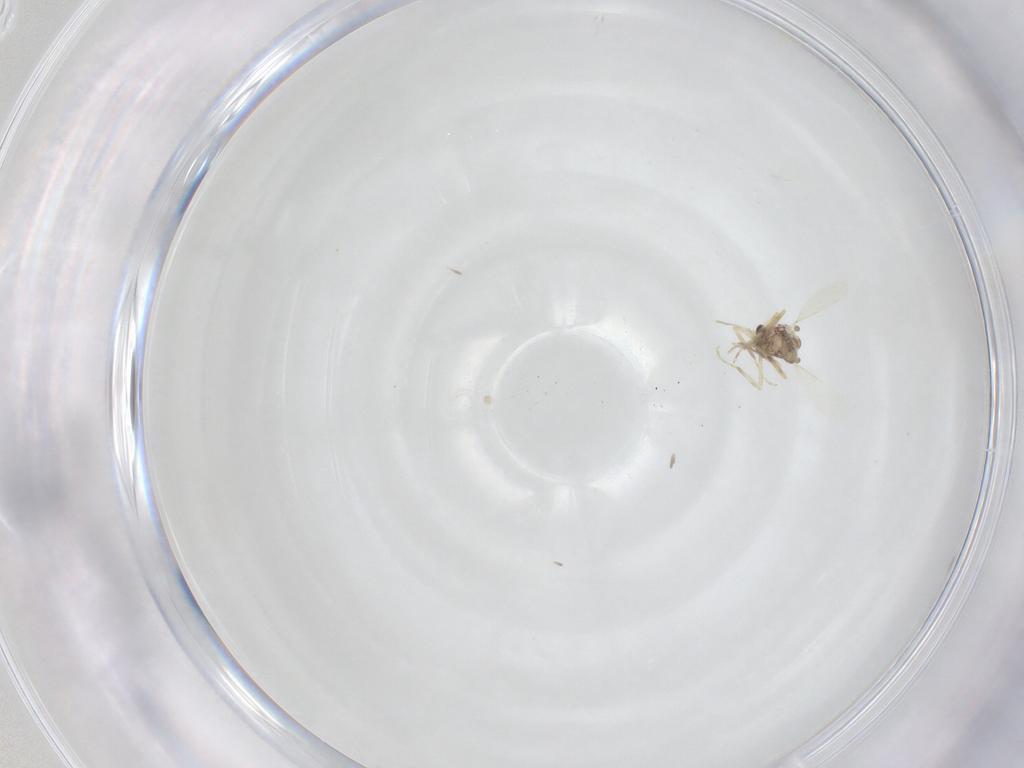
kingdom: Animalia
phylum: Arthropoda
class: Insecta
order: Diptera
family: Ceratopogonidae
